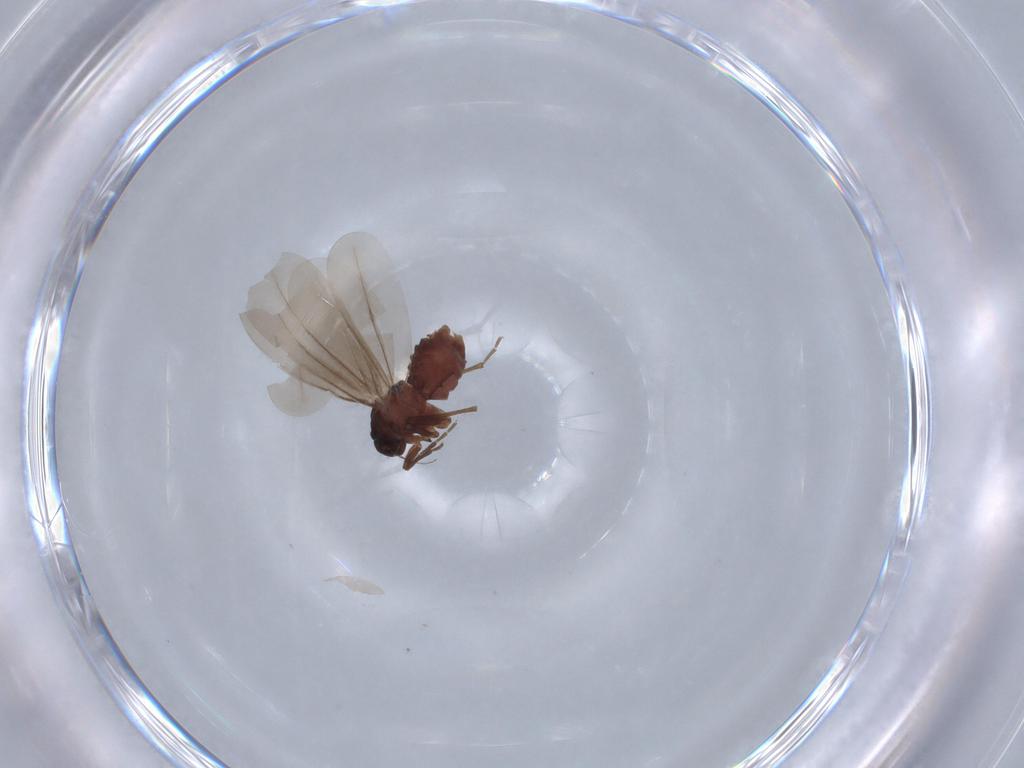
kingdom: Animalia
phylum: Arthropoda
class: Insecta
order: Hemiptera
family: Aleyrodidae
